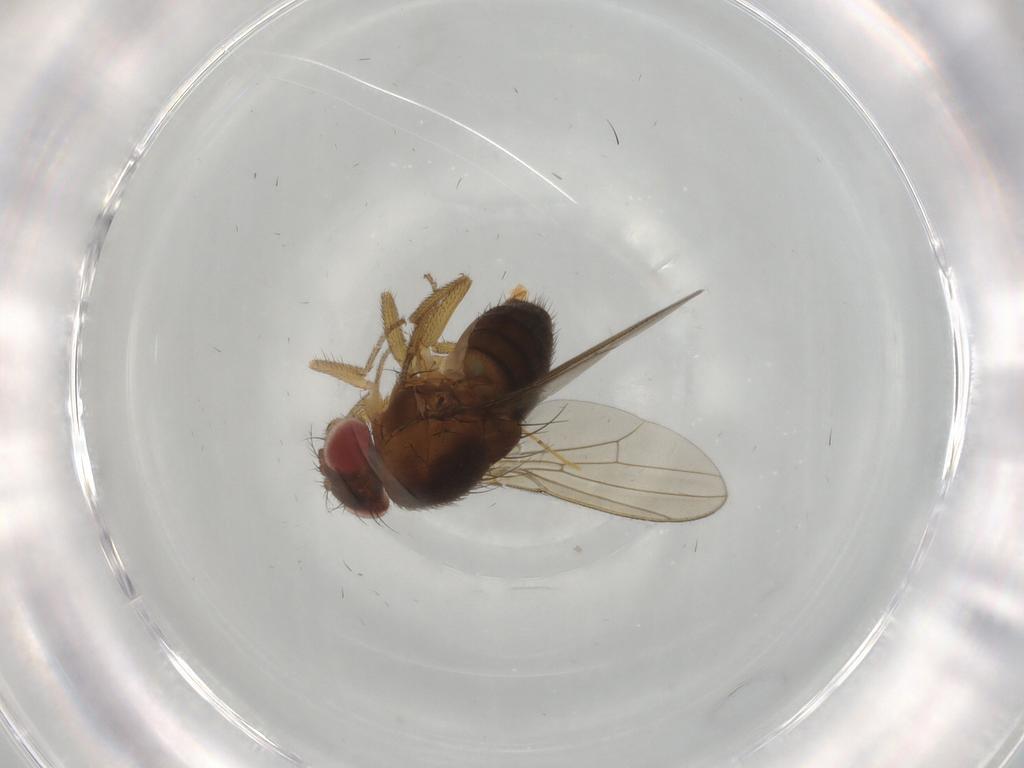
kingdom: Animalia
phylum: Arthropoda
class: Insecta
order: Diptera
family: Drosophilidae
